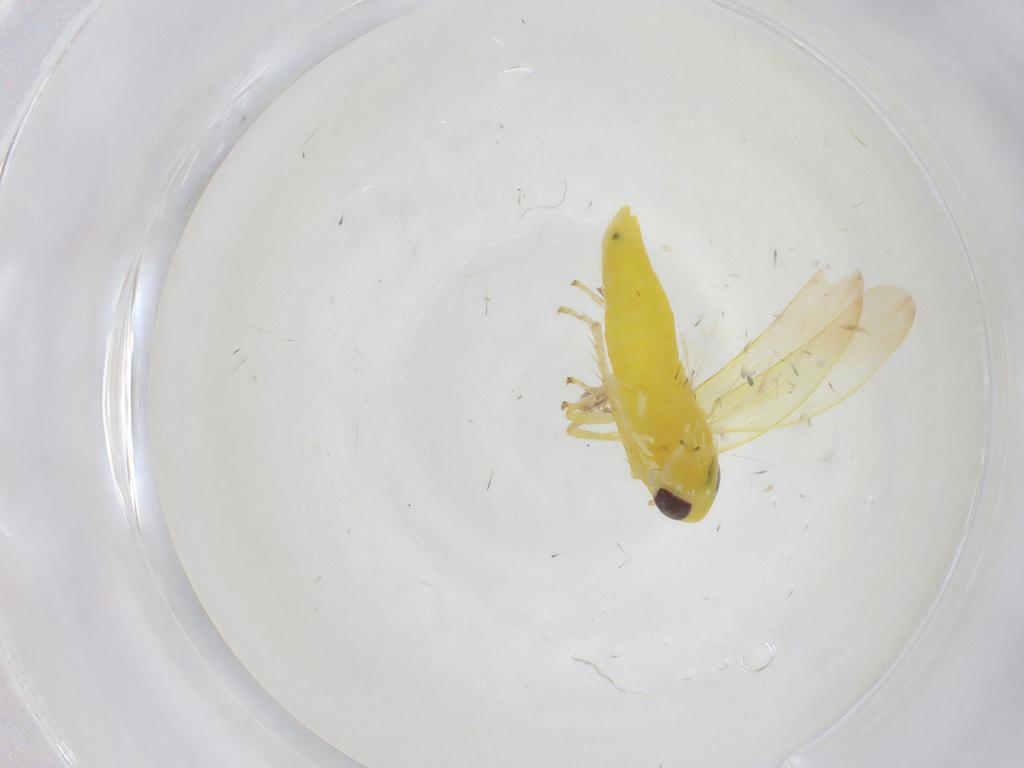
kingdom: Animalia
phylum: Arthropoda
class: Insecta
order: Hemiptera
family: Cicadellidae
